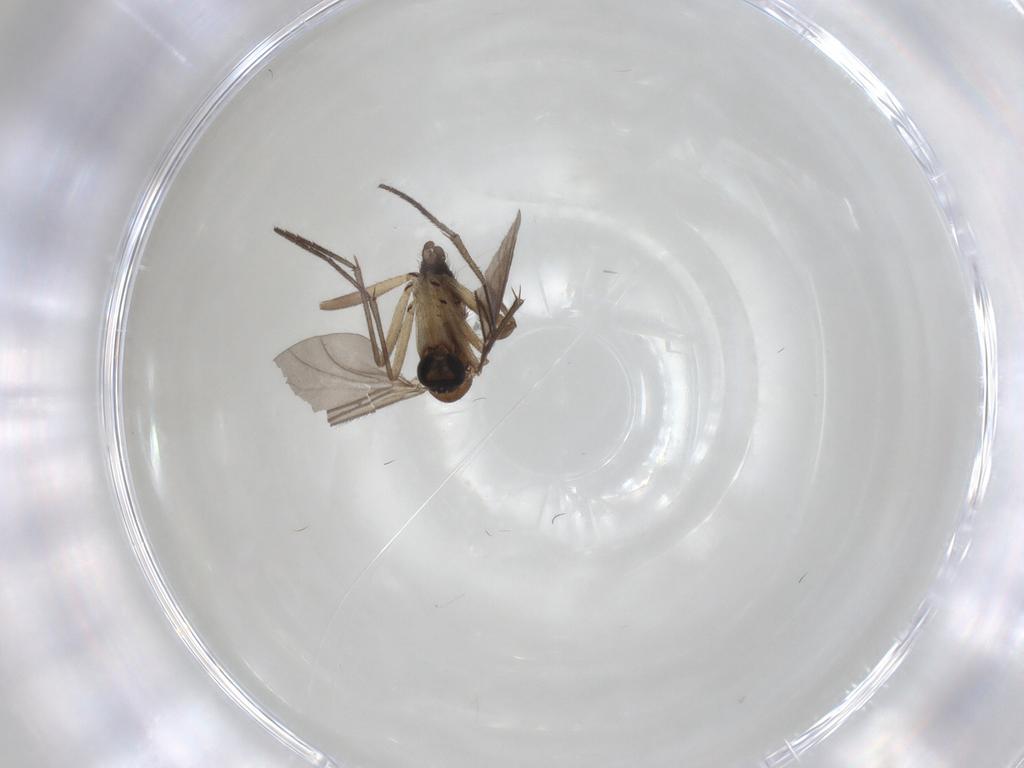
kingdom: Animalia
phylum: Arthropoda
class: Insecta
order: Diptera
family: Sciaridae
